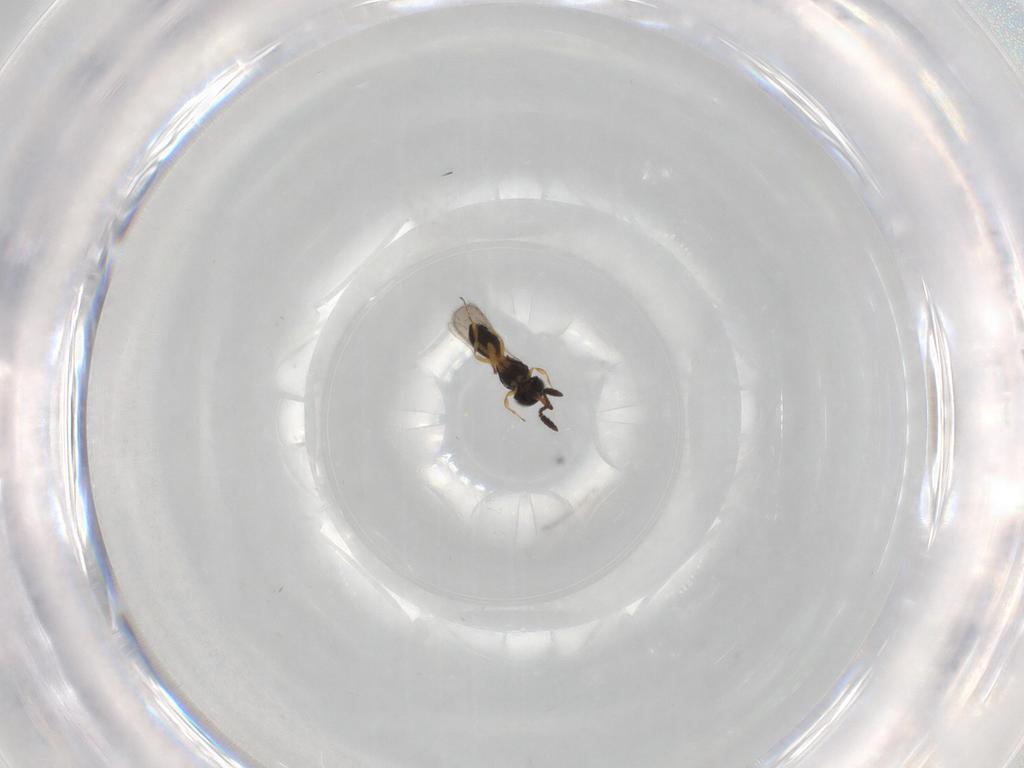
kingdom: Animalia
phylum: Arthropoda
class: Insecta
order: Hymenoptera
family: Scelionidae
